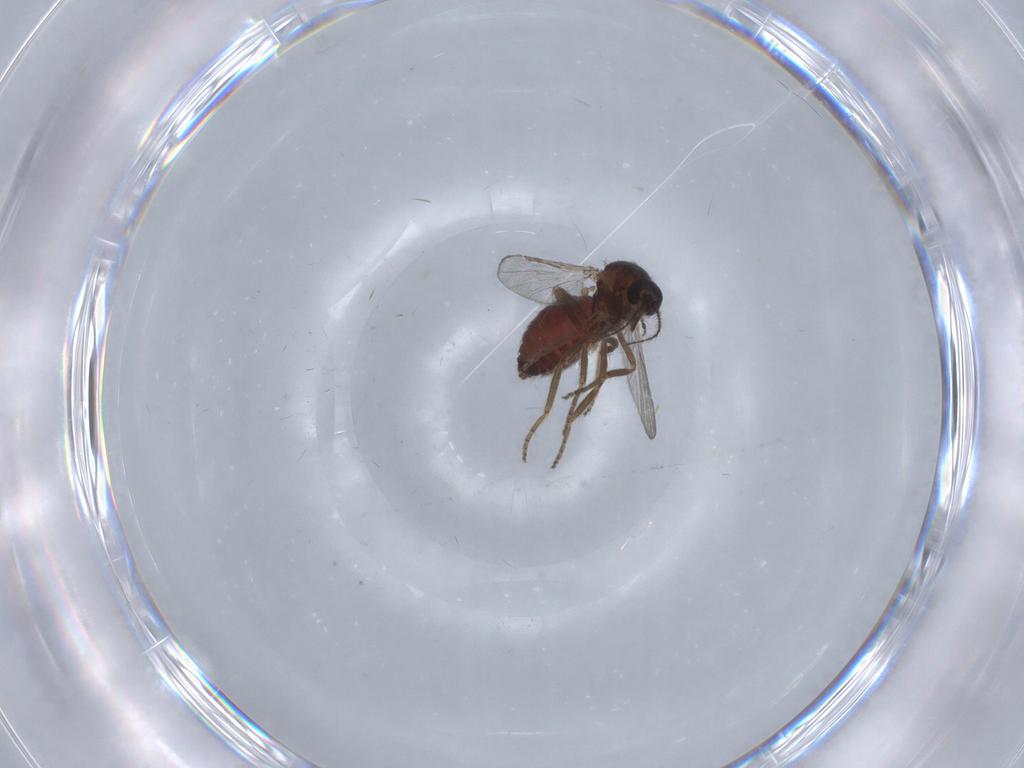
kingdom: Animalia
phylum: Arthropoda
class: Insecta
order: Diptera
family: Ceratopogonidae
